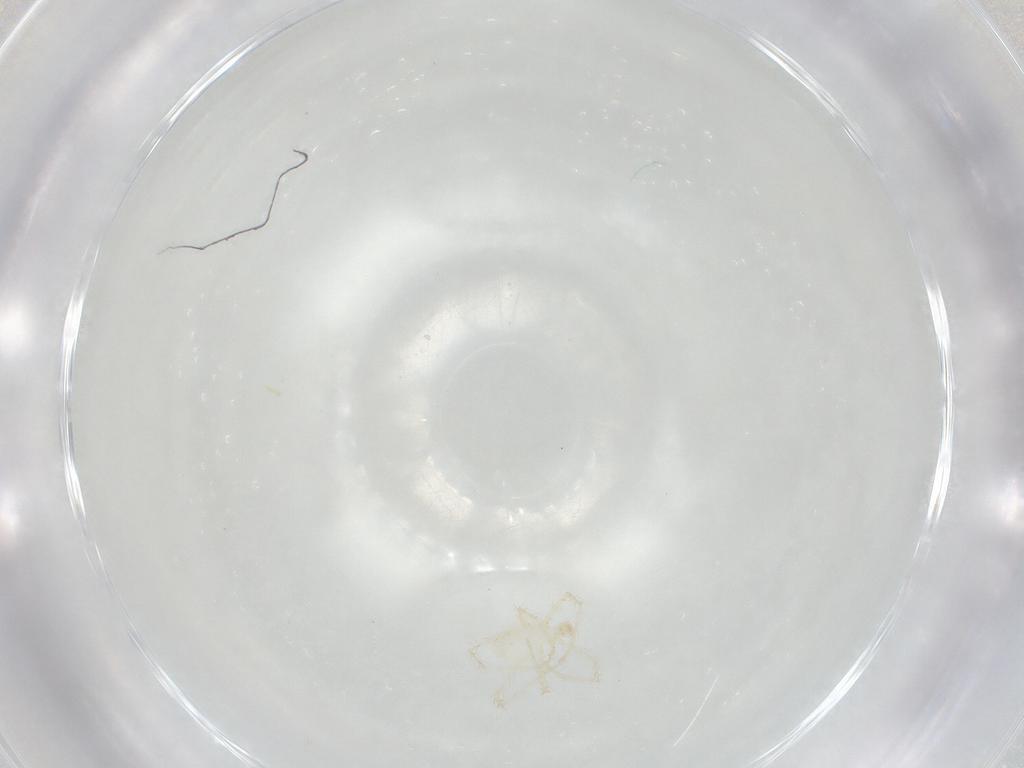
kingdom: Animalia
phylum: Arthropoda
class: Arachnida
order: Trombidiformes
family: Erythraeidae
